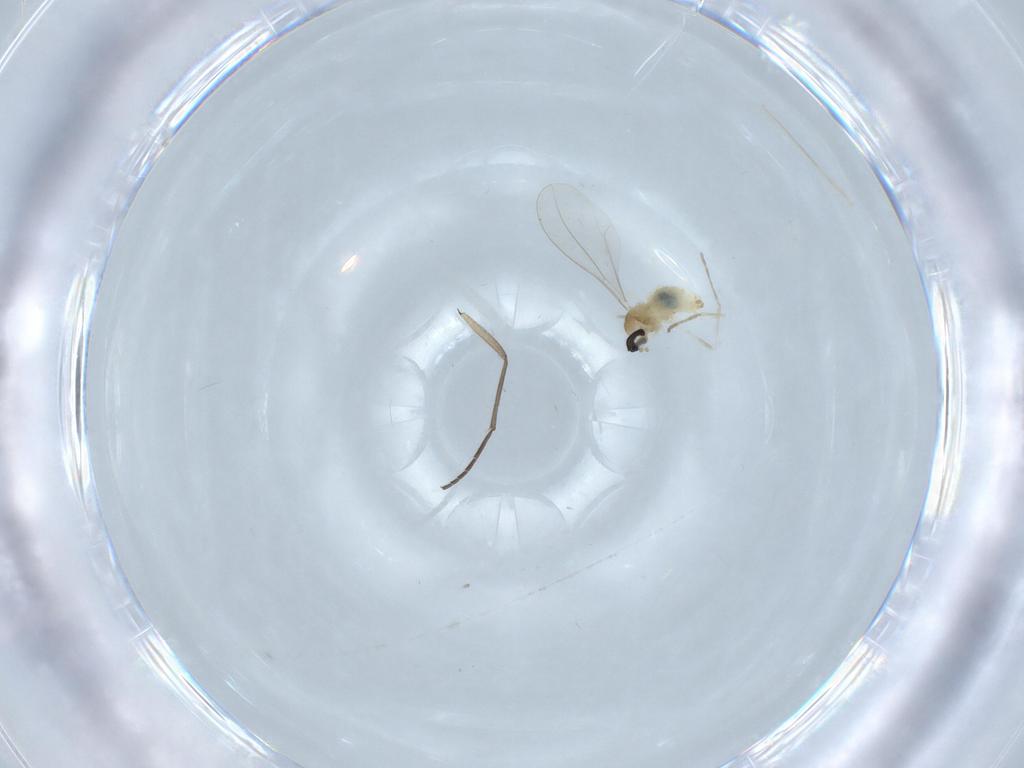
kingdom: Animalia
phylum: Arthropoda
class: Insecta
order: Diptera
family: Cecidomyiidae
